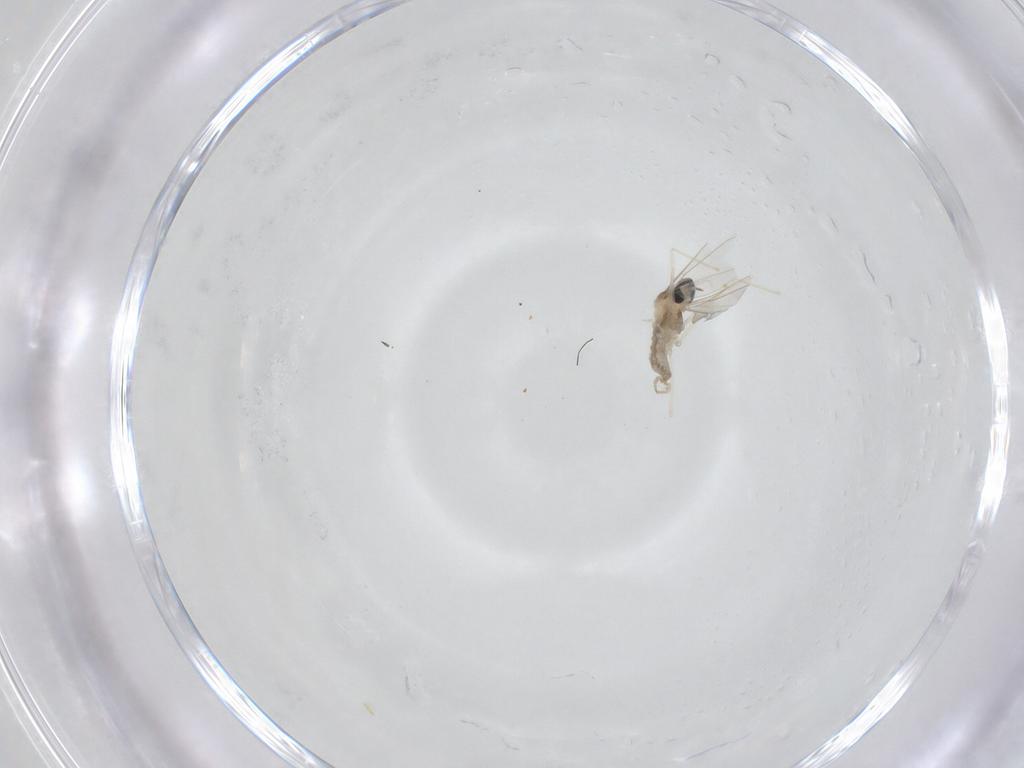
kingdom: Animalia
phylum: Arthropoda
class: Insecta
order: Diptera
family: Cecidomyiidae
